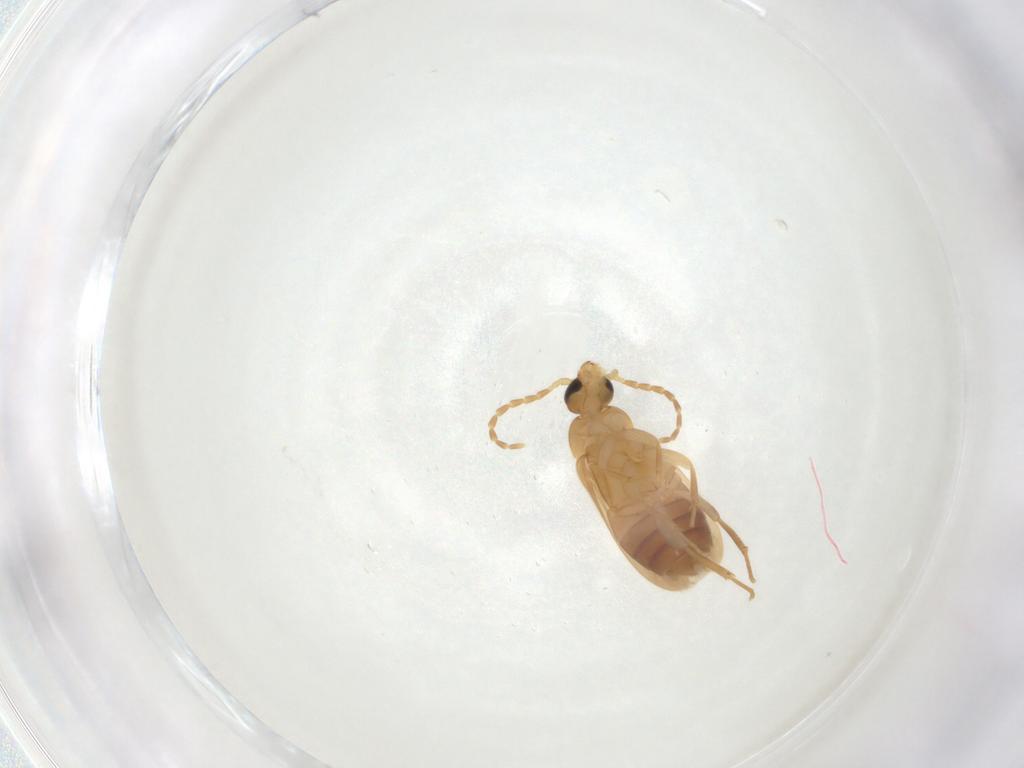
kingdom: Animalia
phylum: Arthropoda
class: Insecta
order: Coleoptera
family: Scraptiidae
